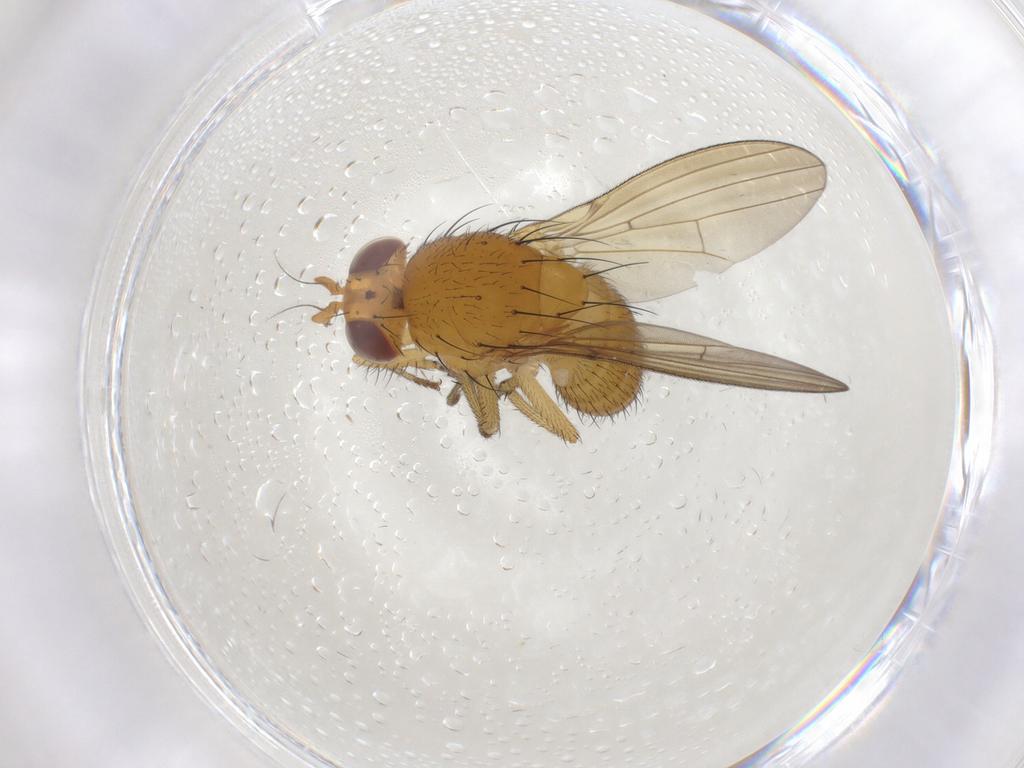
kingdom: Animalia
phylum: Arthropoda
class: Insecta
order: Diptera
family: Lauxaniidae
